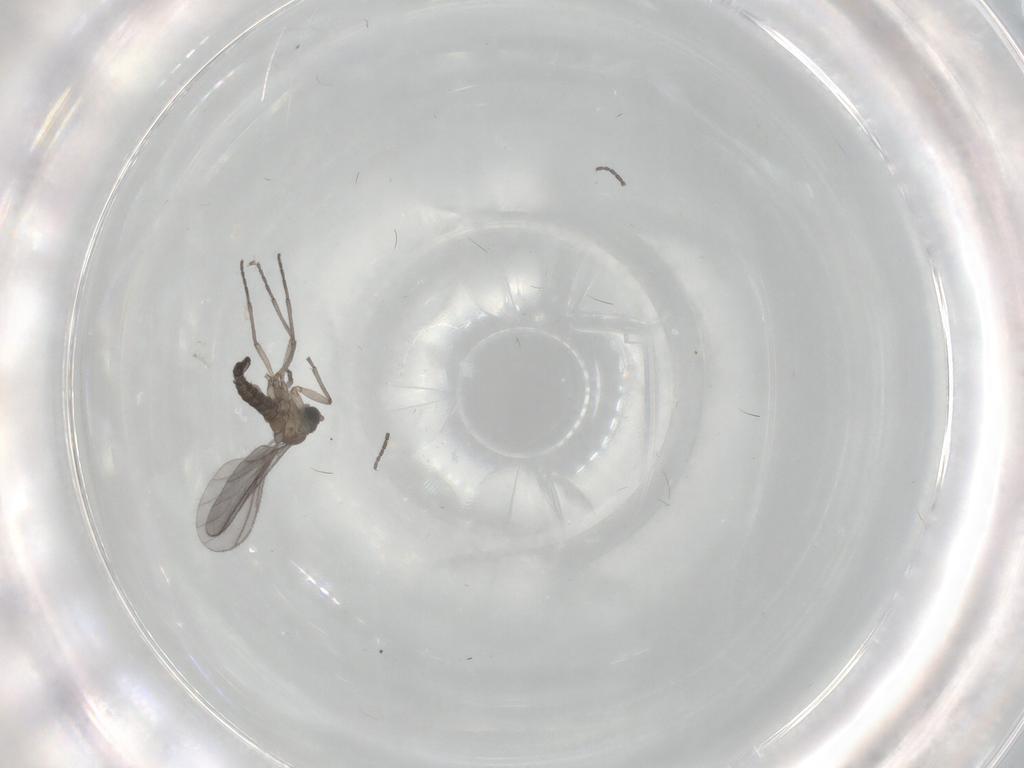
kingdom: Animalia
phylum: Arthropoda
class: Insecta
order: Diptera
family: Sciaridae
